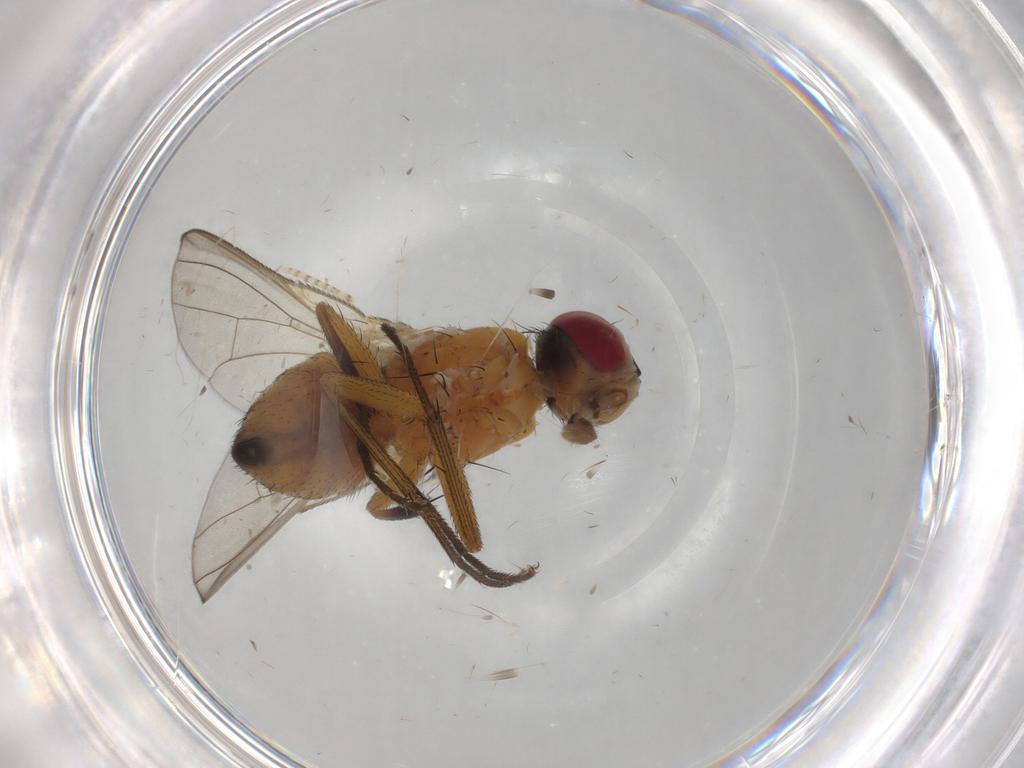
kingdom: Animalia
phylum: Arthropoda
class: Insecta
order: Diptera
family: Muscidae
